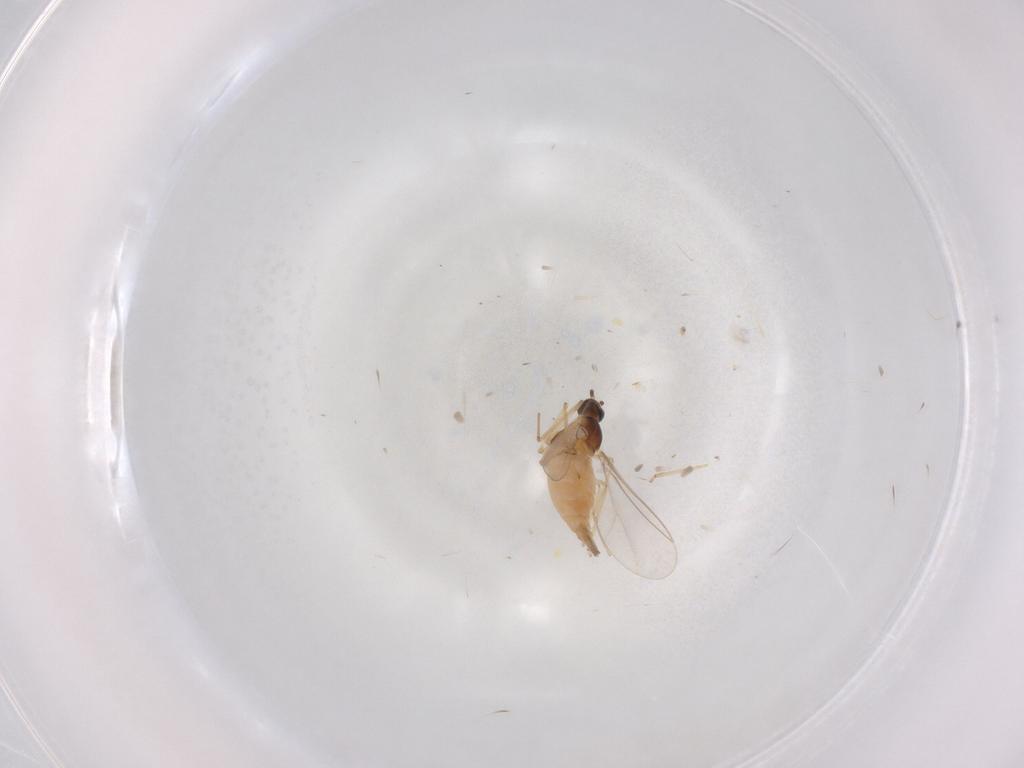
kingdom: Animalia
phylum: Arthropoda
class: Insecta
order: Diptera
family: Cecidomyiidae
